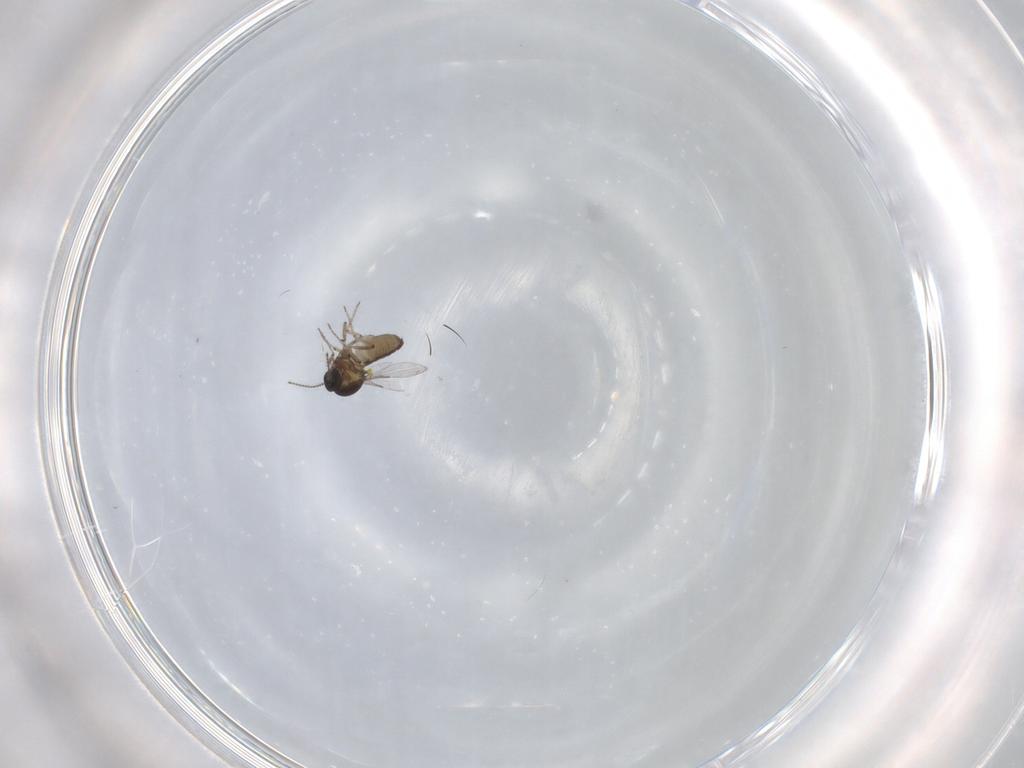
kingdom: Animalia
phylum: Arthropoda
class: Insecta
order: Diptera
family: Ceratopogonidae
